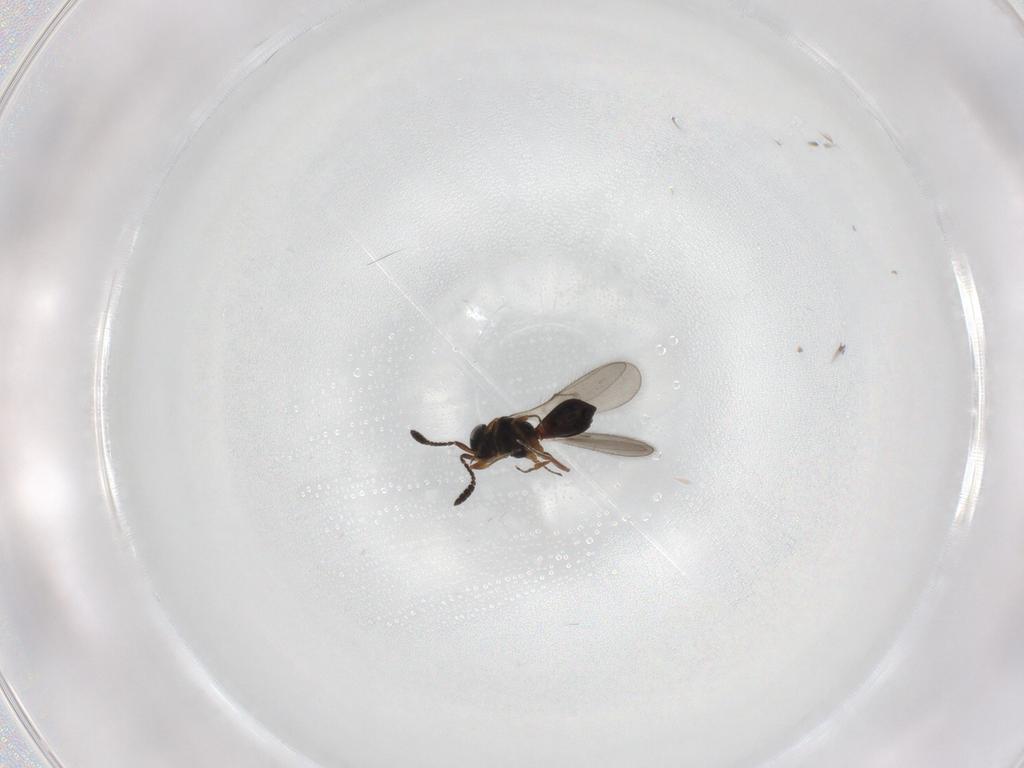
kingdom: Animalia
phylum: Arthropoda
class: Insecta
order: Hymenoptera
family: Scelionidae
